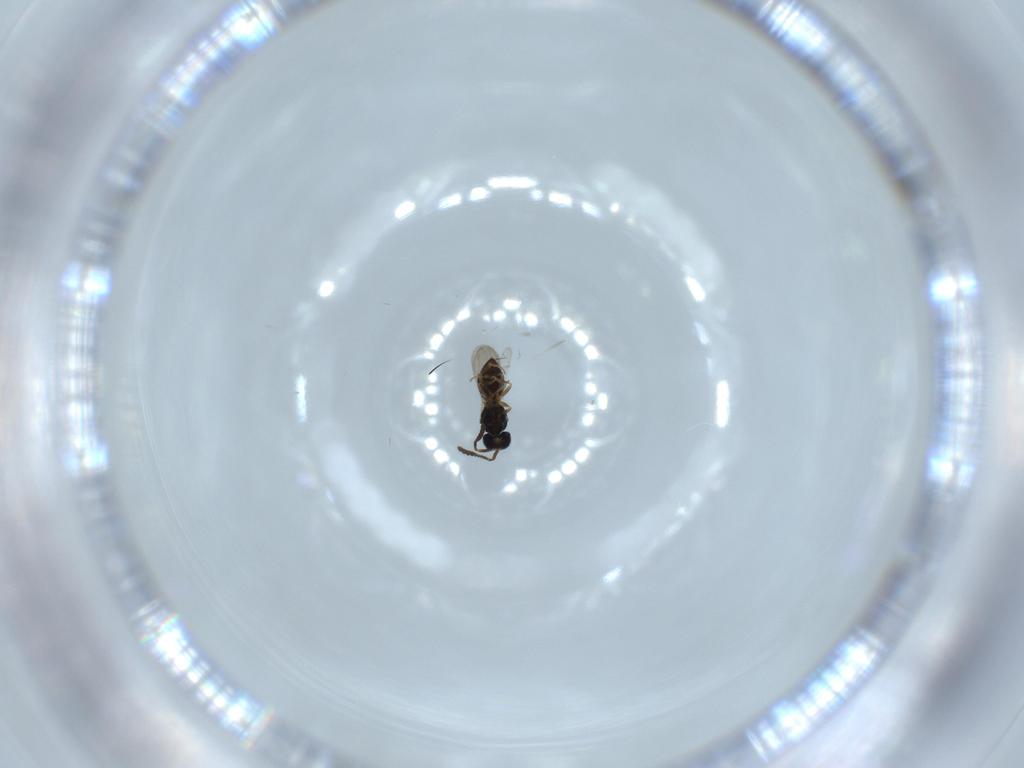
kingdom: Animalia
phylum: Arthropoda
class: Insecta
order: Hymenoptera
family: Scelionidae
